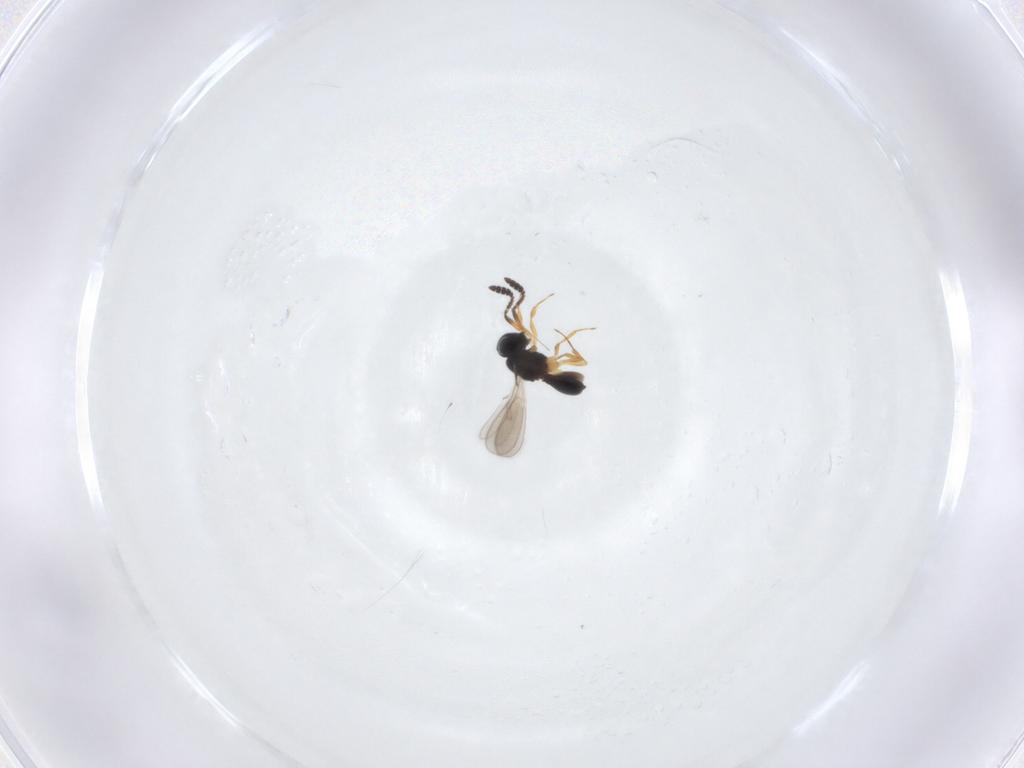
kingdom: Animalia
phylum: Arthropoda
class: Insecta
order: Hymenoptera
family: Scelionidae
